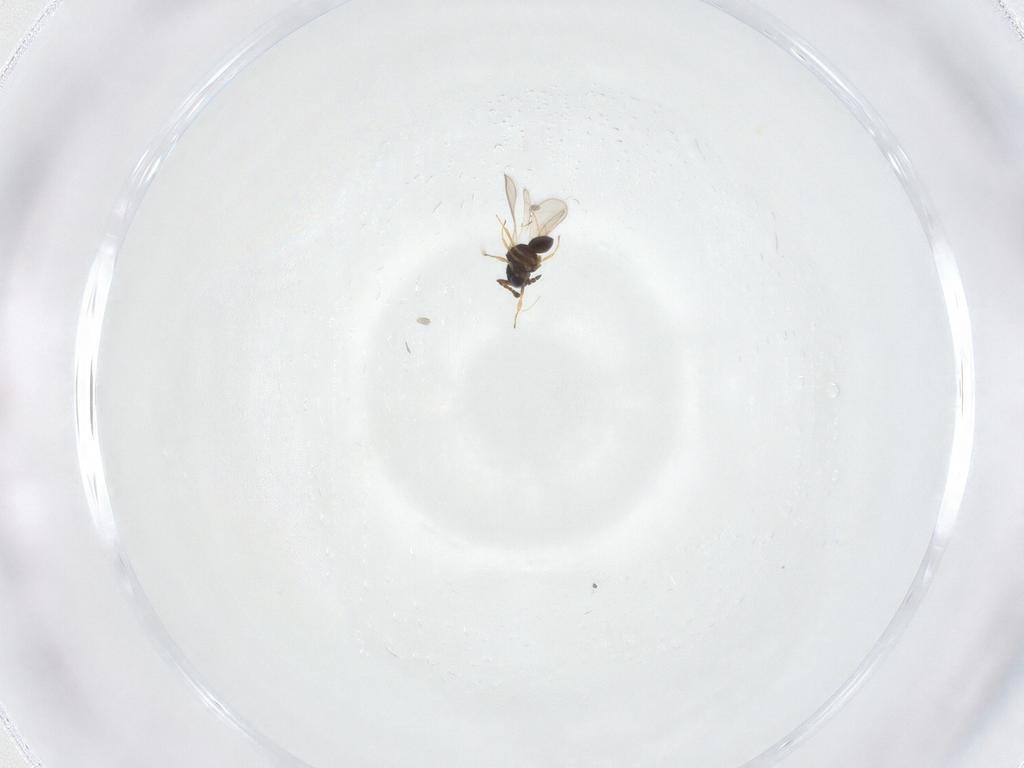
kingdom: Animalia
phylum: Arthropoda
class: Insecta
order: Hymenoptera
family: Scelionidae
